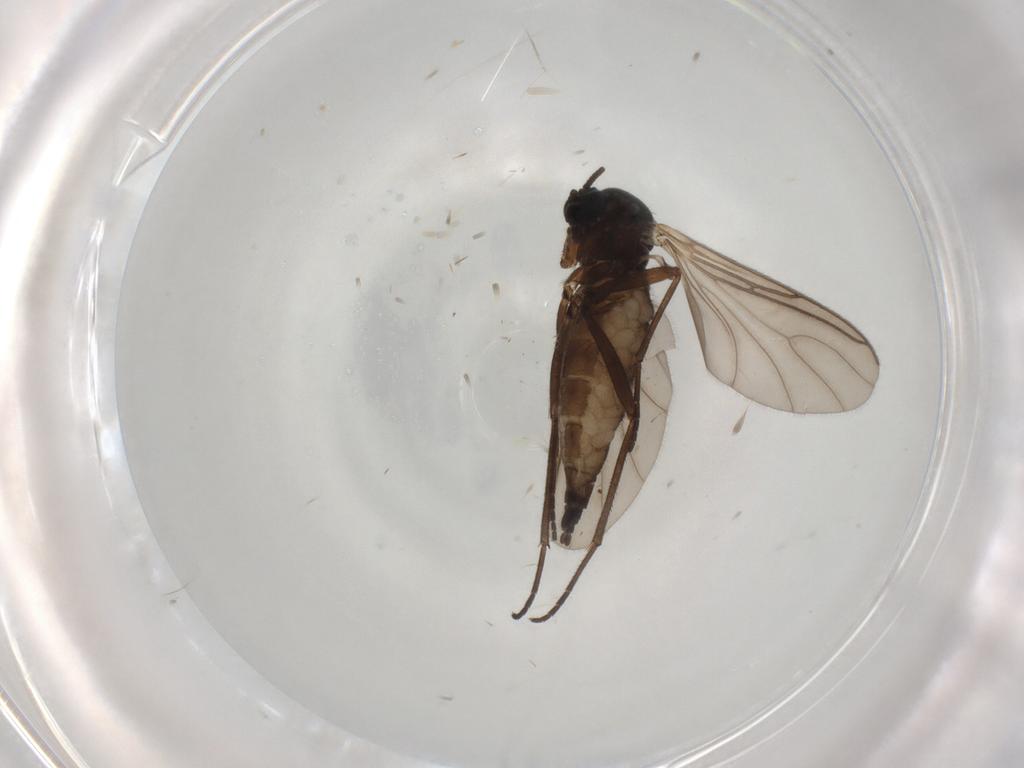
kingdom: Animalia
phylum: Arthropoda
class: Insecta
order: Diptera
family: Sciaridae
